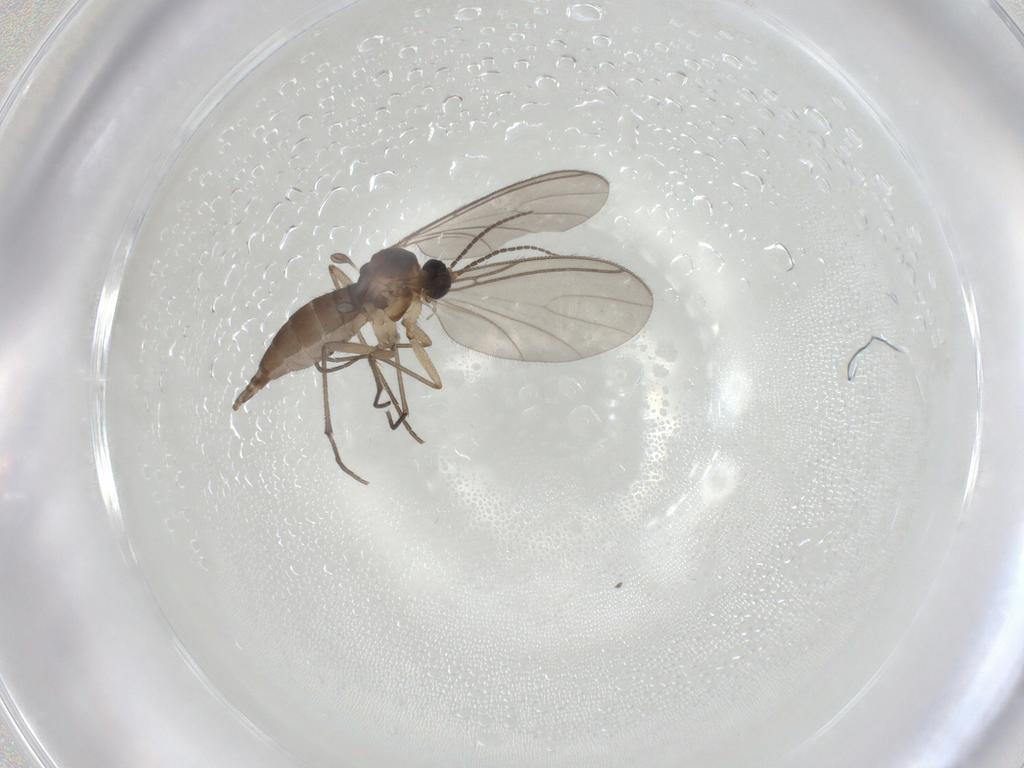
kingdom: Animalia
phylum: Arthropoda
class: Insecta
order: Diptera
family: Sciaridae
